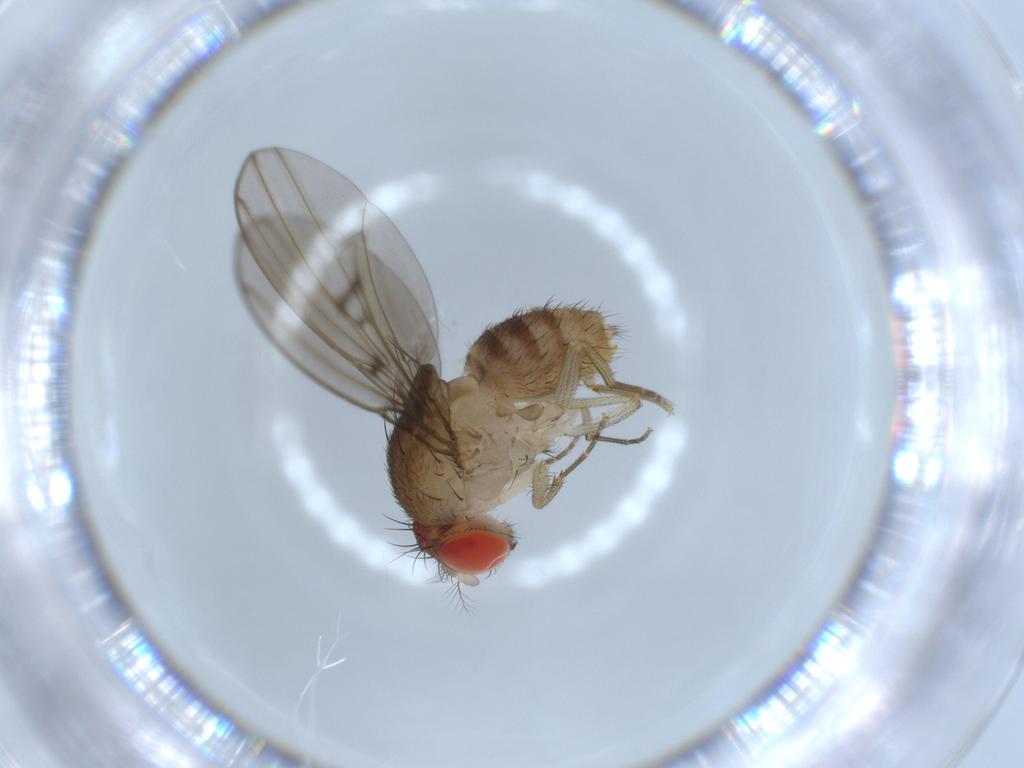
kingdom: Animalia
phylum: Arthropoda
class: Insecta
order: Diptera
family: Drosophilidae
